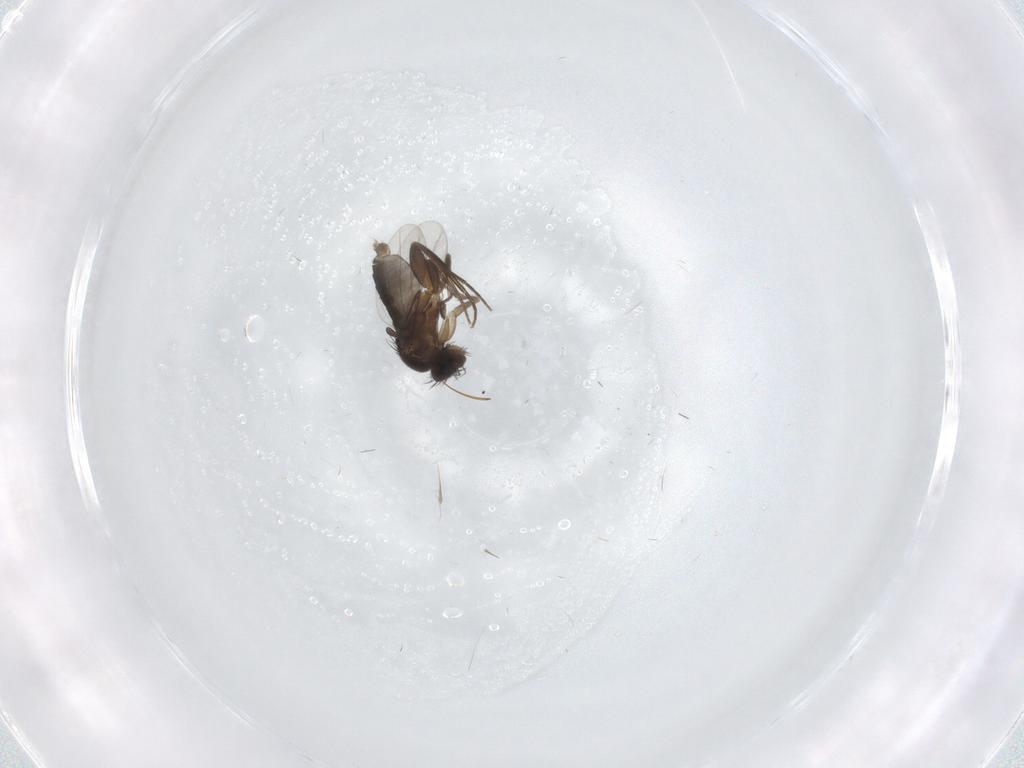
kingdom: Animalia
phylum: Arthropoda
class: Insecta
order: Diptera
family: Phoridae
